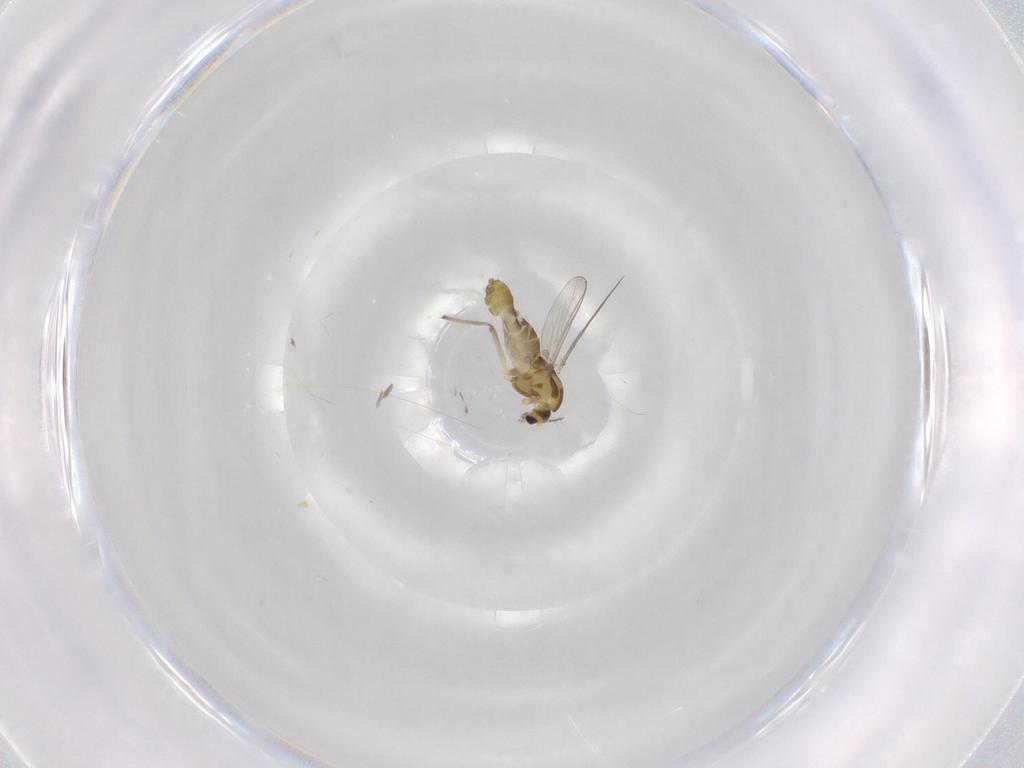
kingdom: Animalia
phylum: Arthropoda
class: Insecta
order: Diptera
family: Chironomidae
